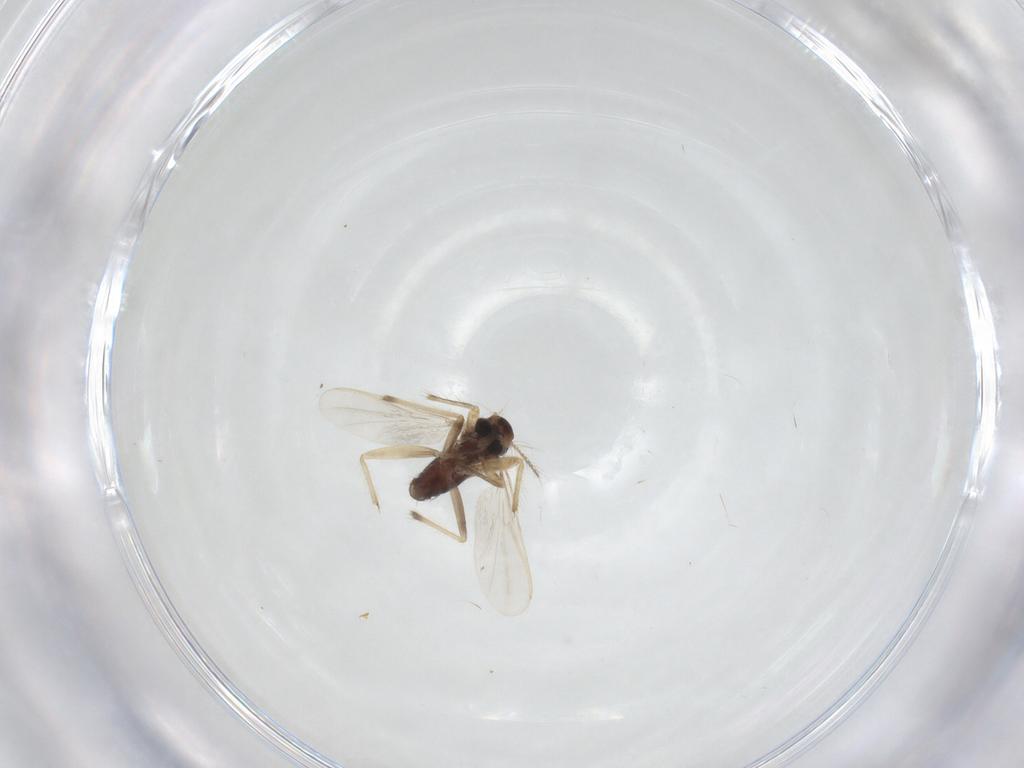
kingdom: Animalia
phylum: Arthropoda
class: Insecta
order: Diptera
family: Chironomidae
